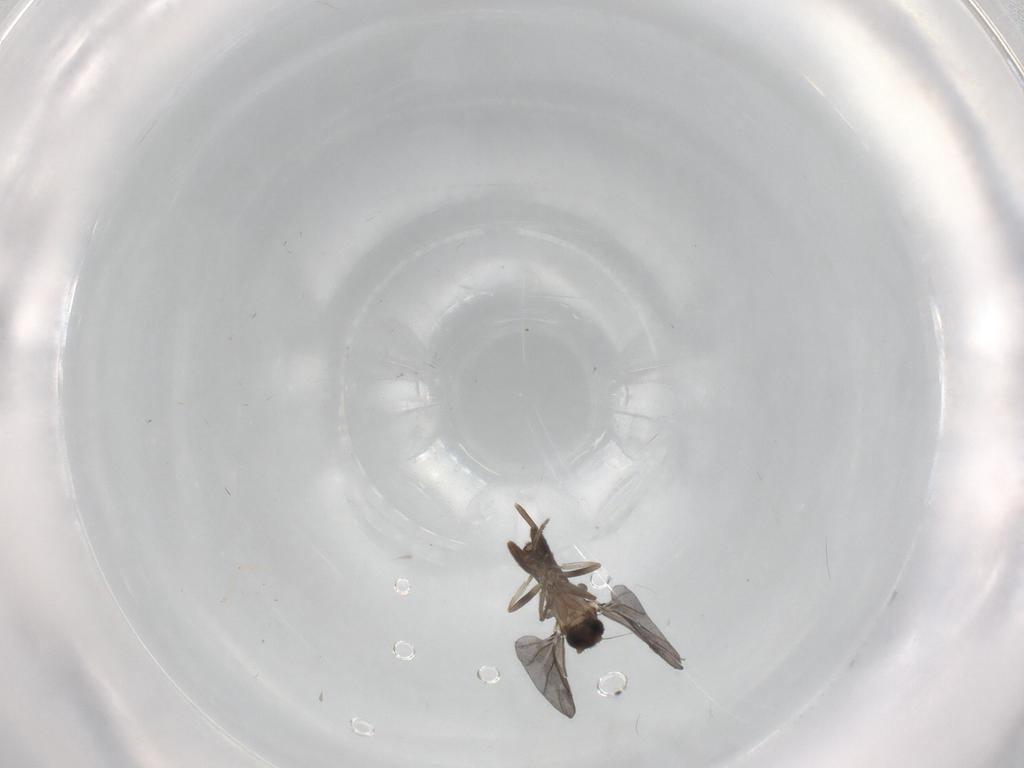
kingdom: Animalia
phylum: Arthropoda
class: Insecta
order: Diptera
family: Phoridae
